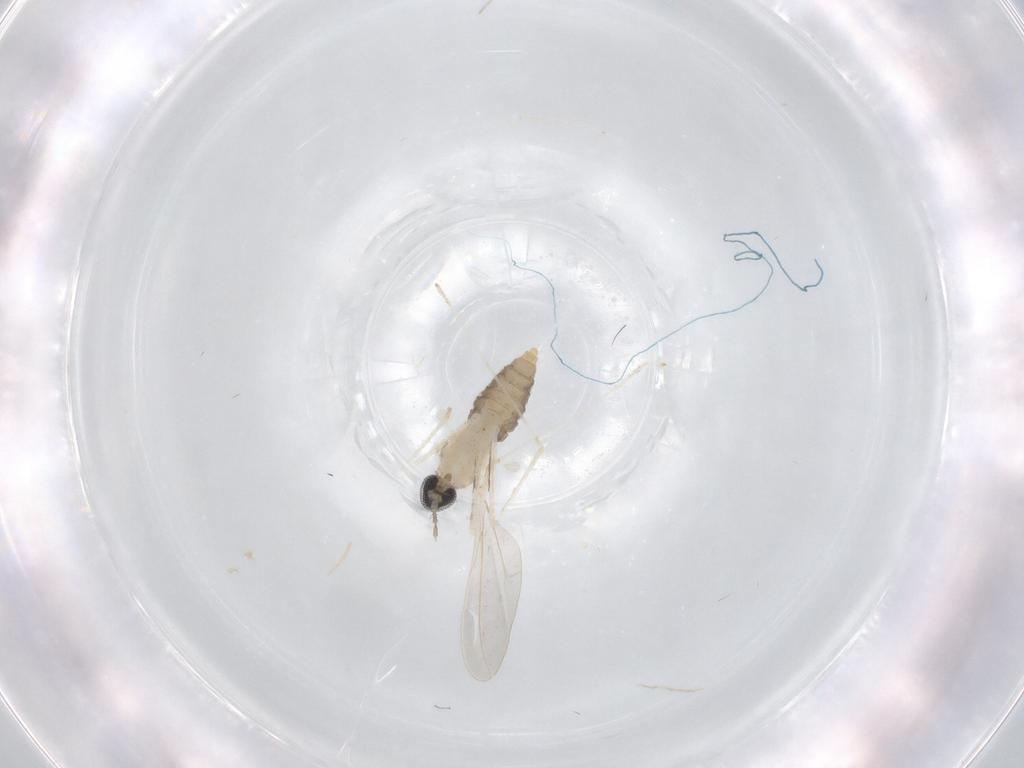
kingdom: Animalia
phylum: Arthropoda
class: Insecta
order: Diptera
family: Cecidomyiidae
